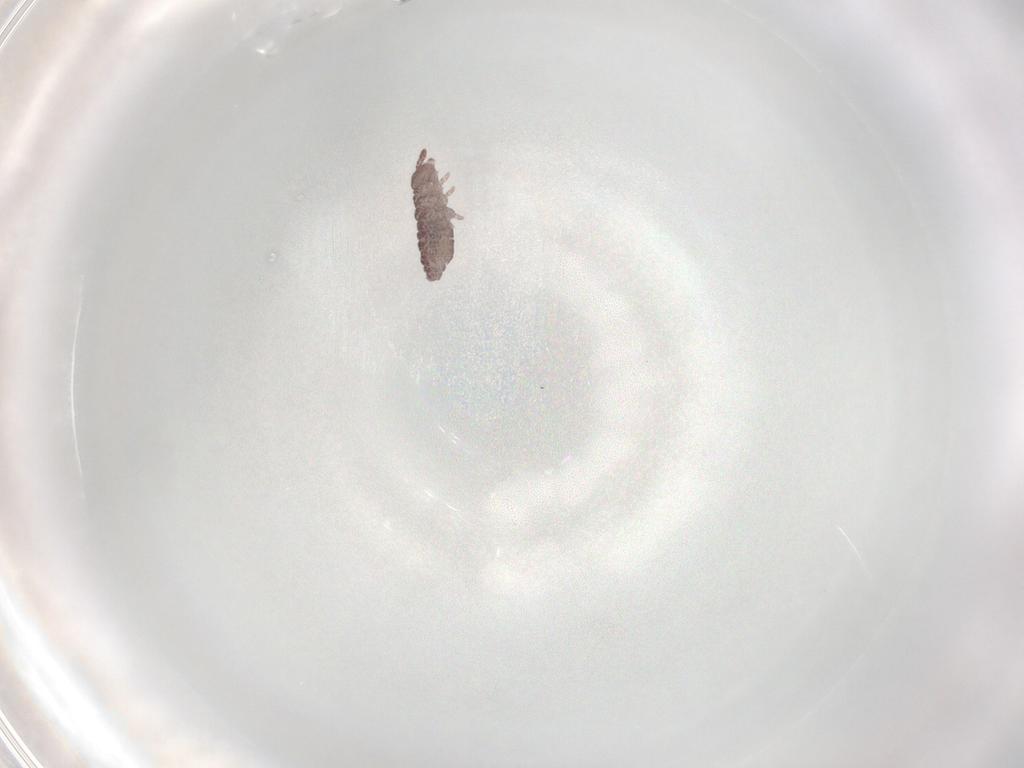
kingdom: Animalia
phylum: Arthropoda
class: Collembola
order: Poduromorpha
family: Hypogastruridae
